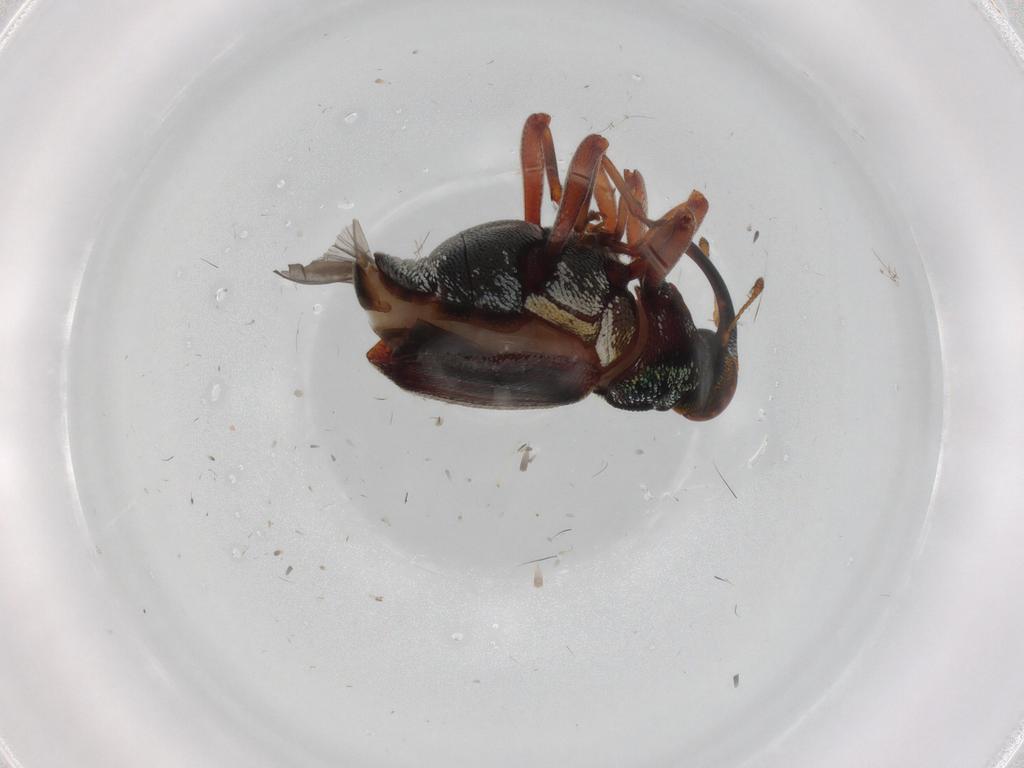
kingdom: Animalia
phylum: Arthropoda
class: Insecta
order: Coleoptera
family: Curculionidae
